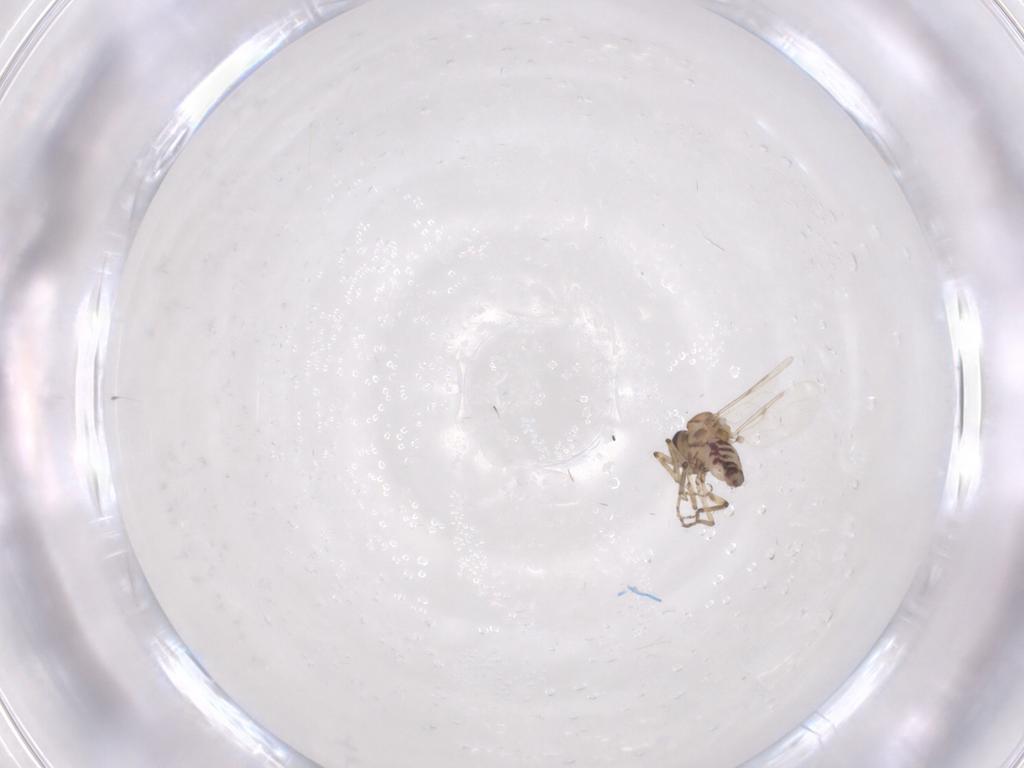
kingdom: Animalia
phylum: Arthropoda
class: Insecta
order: Diptera
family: Ceratopogonidae
